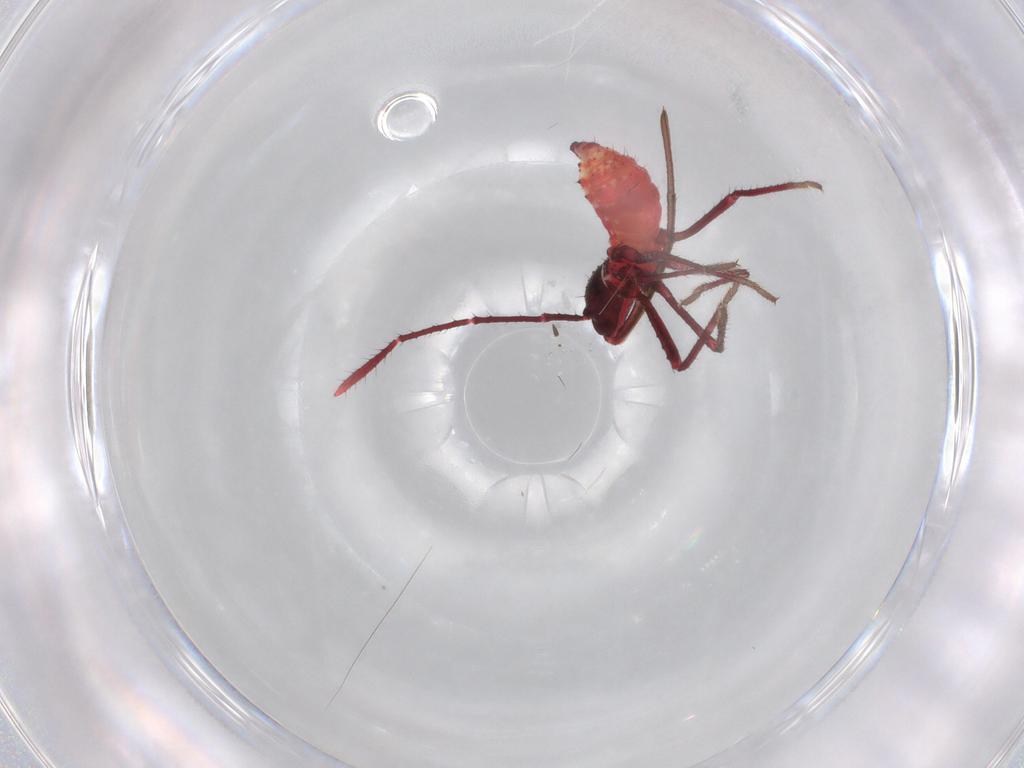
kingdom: Animalia
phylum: Arthropoda
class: Insecta
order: Hemiptera
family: Coreidae
